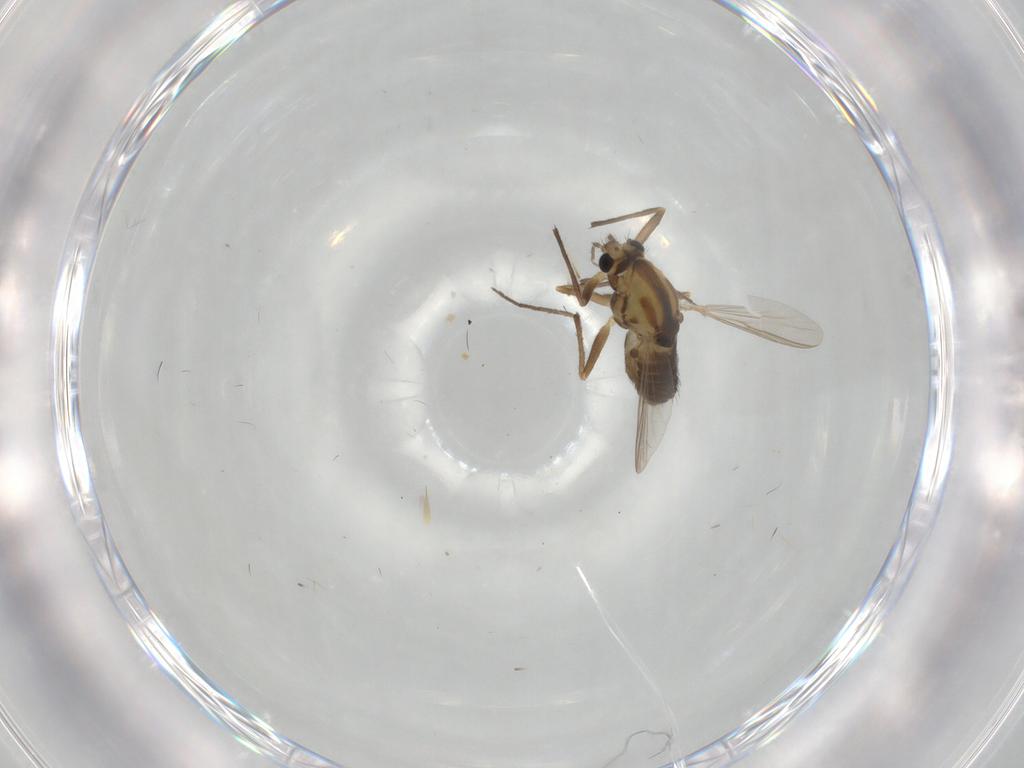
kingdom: Animalia
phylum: Arthropoda
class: Insecta
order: Diptera
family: Chironomidae
